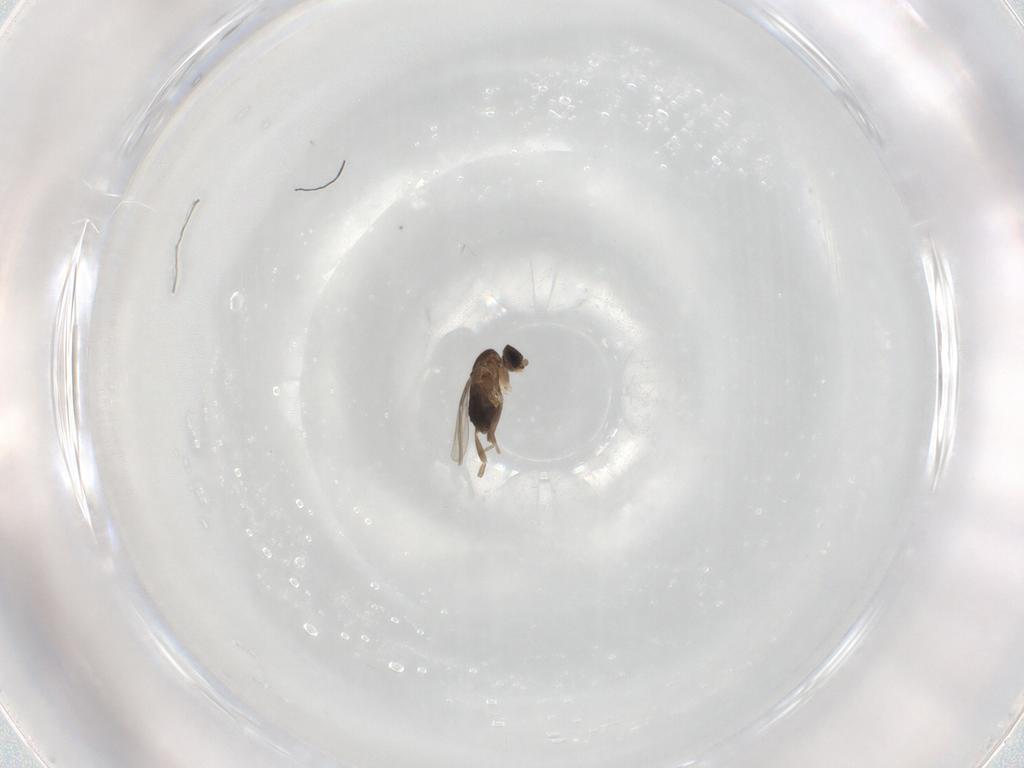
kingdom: Animalia
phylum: Arthropoda
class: Insecta
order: Diptera
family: Phoridae
